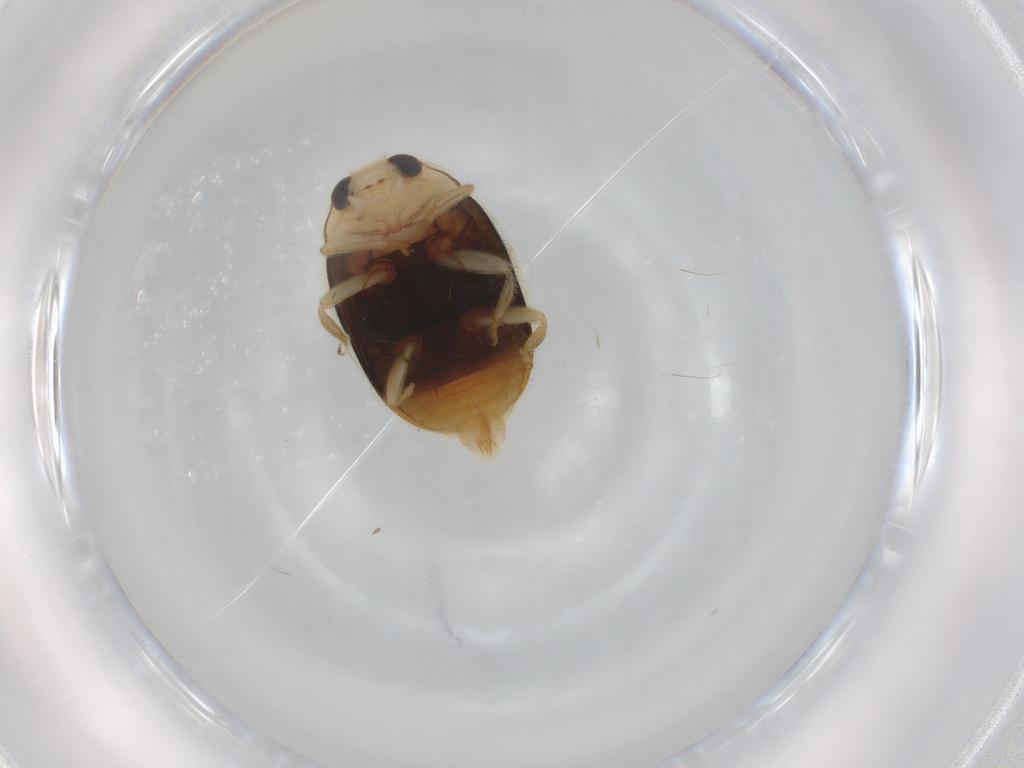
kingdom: Animalia
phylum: Arthropoda
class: Insecta
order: Coleoptera
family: Coccinellidae
